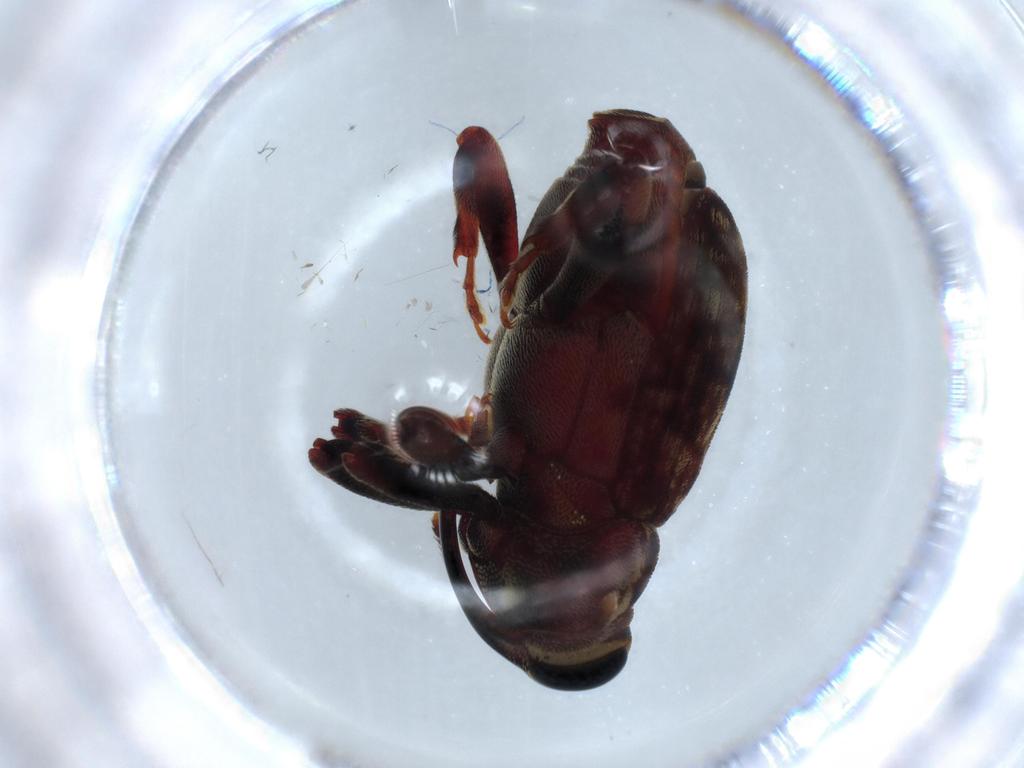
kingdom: Animalia
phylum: Arthropoda
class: Insecta
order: Coleoptera
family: Curculionidae
